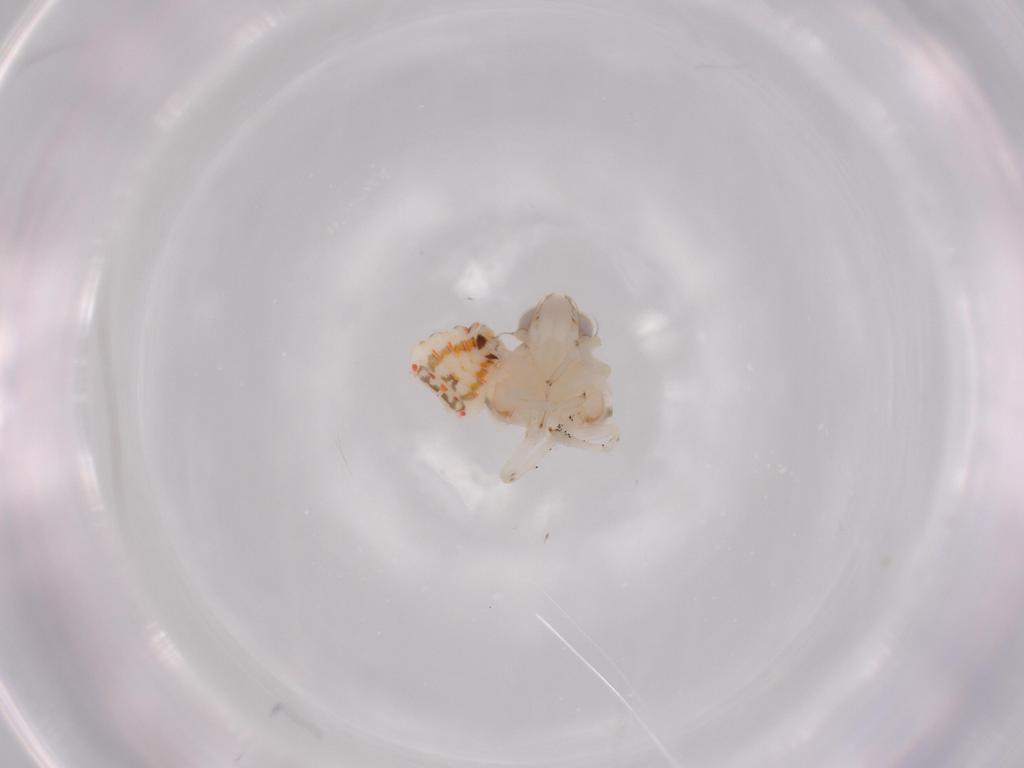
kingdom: Animalia
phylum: Arthropoda
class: Insecta
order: Hemiptera
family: Nogodinidae
